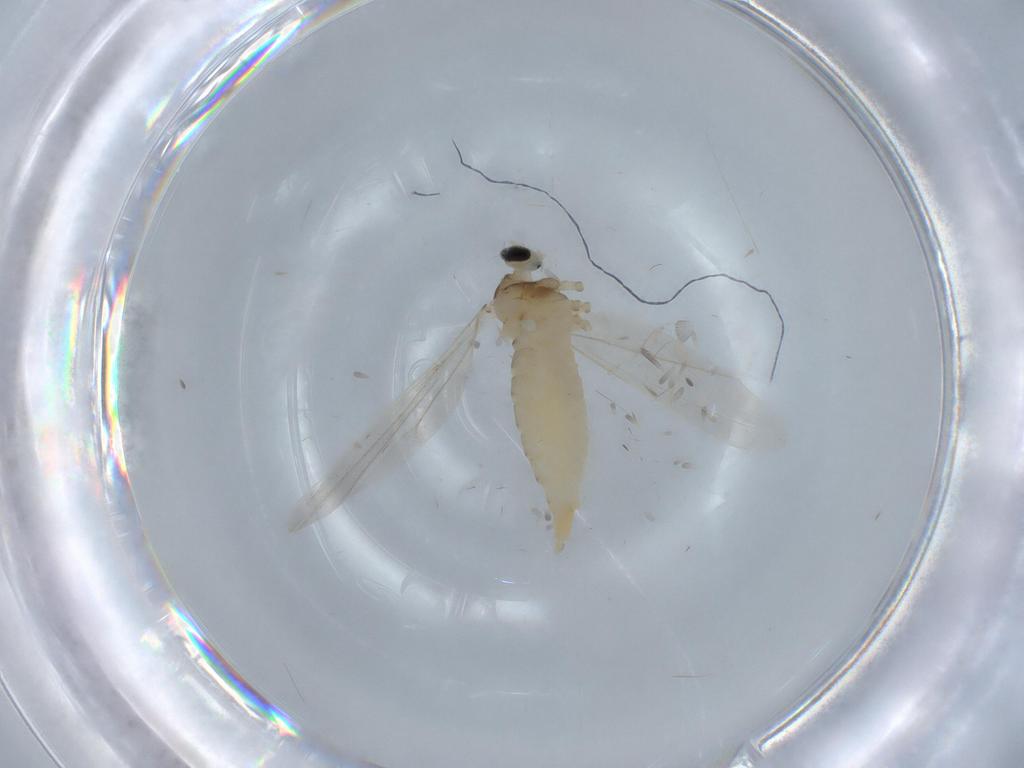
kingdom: Animalia
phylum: Arthropoda
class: Insecta
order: Diptera
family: Cecidomyiidae
